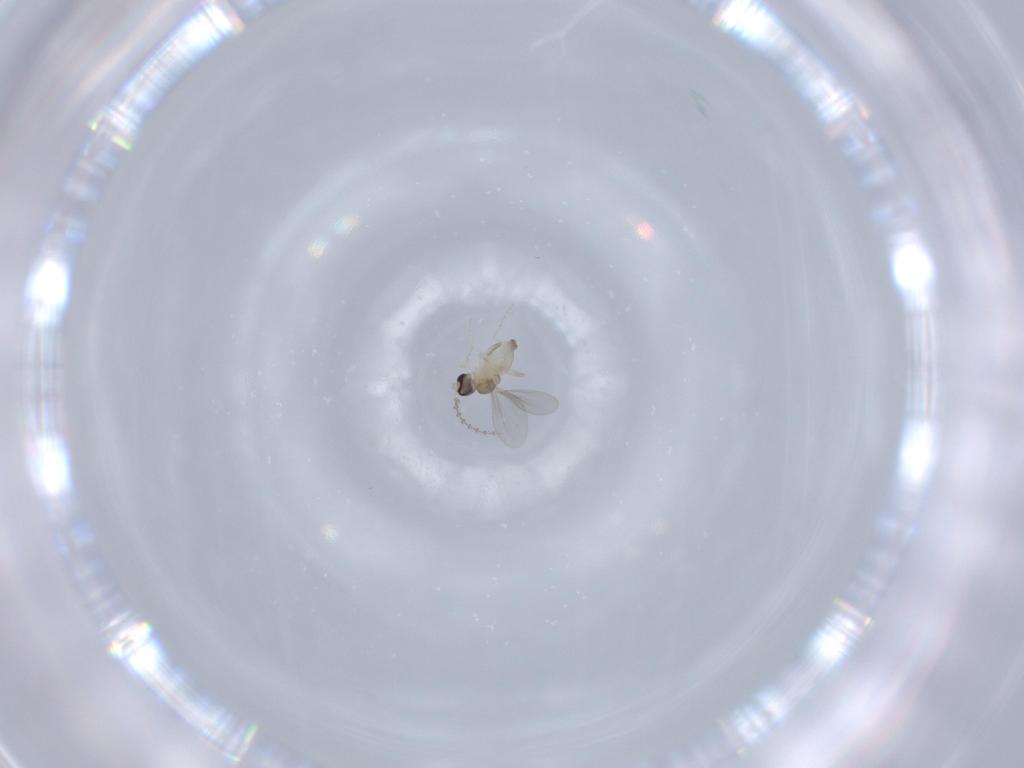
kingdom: Animalia
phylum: Arthropoda
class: Insecta
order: Diptera
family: Cecidomyiidae
